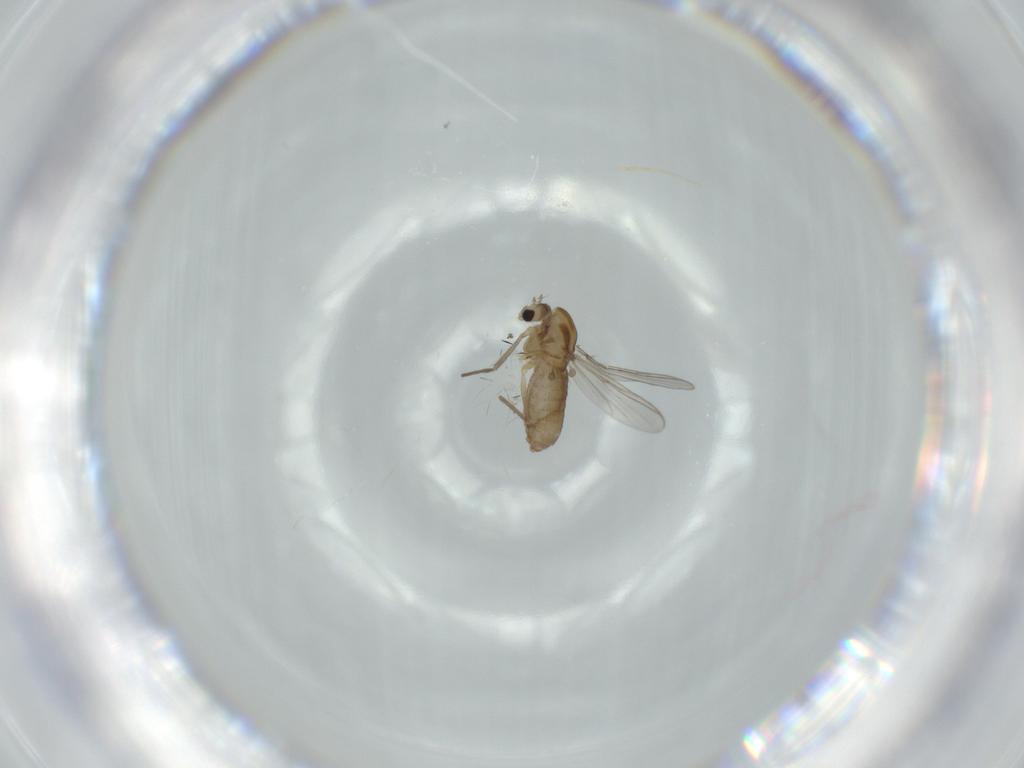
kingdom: Animalia
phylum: Arthropoda
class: Insecta
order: Diptera
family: Chironomidae
